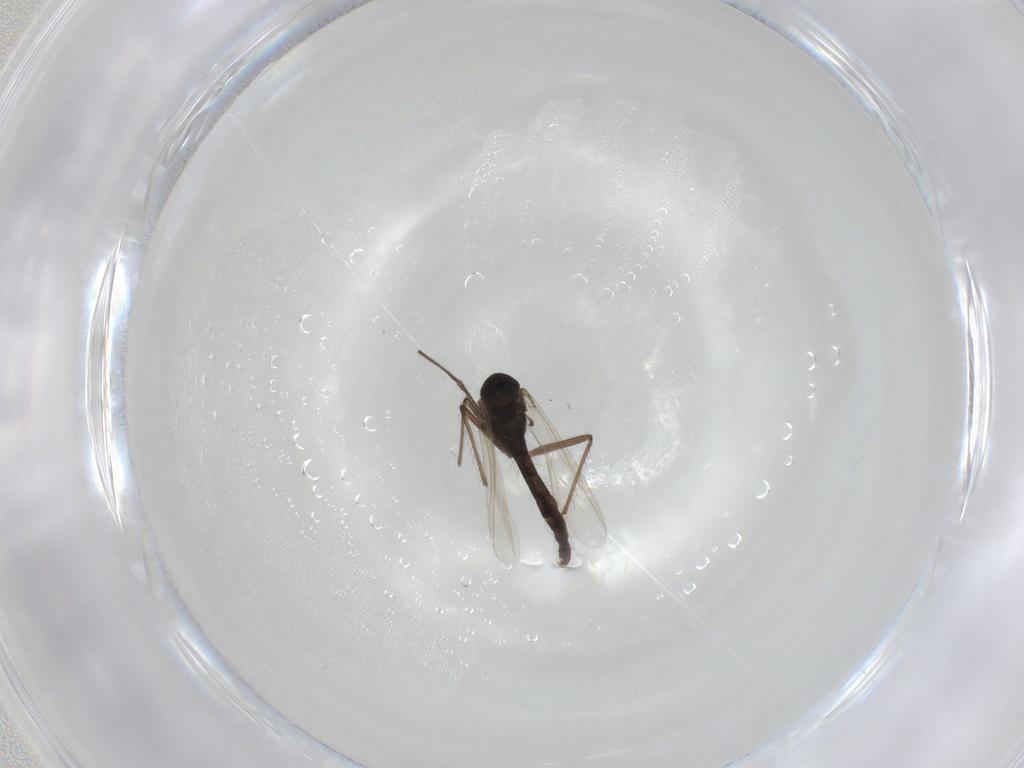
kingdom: Animalia
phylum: Arthropoda
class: Insecta
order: Diptera
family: Chironomidae
